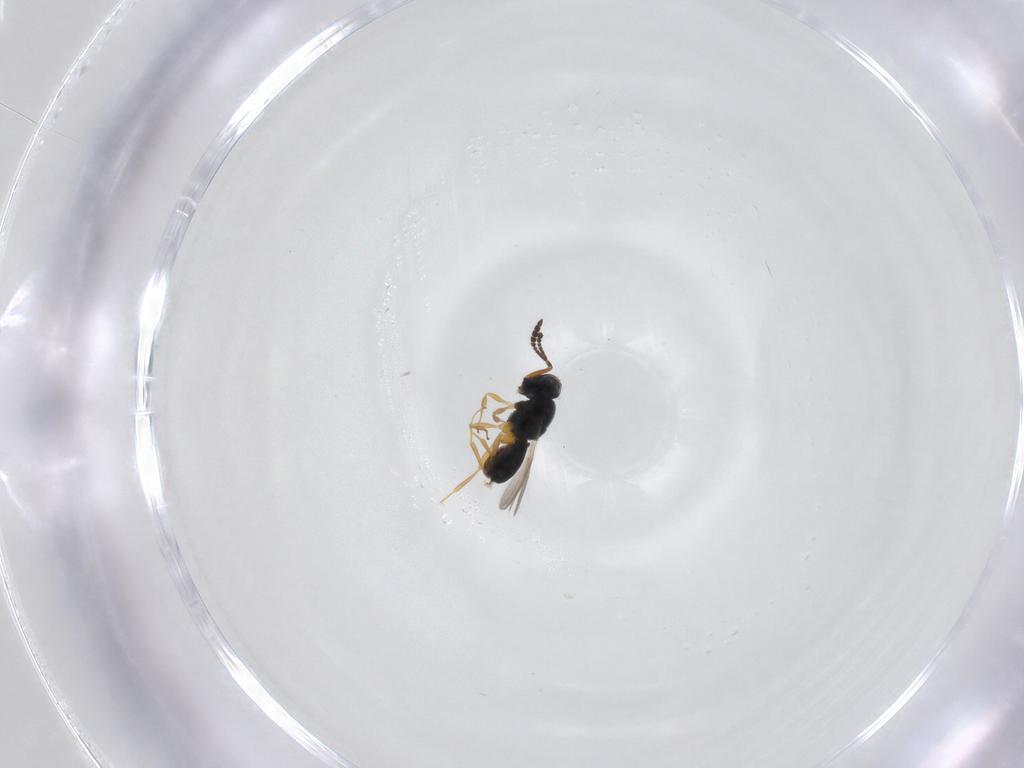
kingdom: Animalia
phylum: Arthropoda
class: Insecta
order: Hymenoptera
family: Scelionidae
